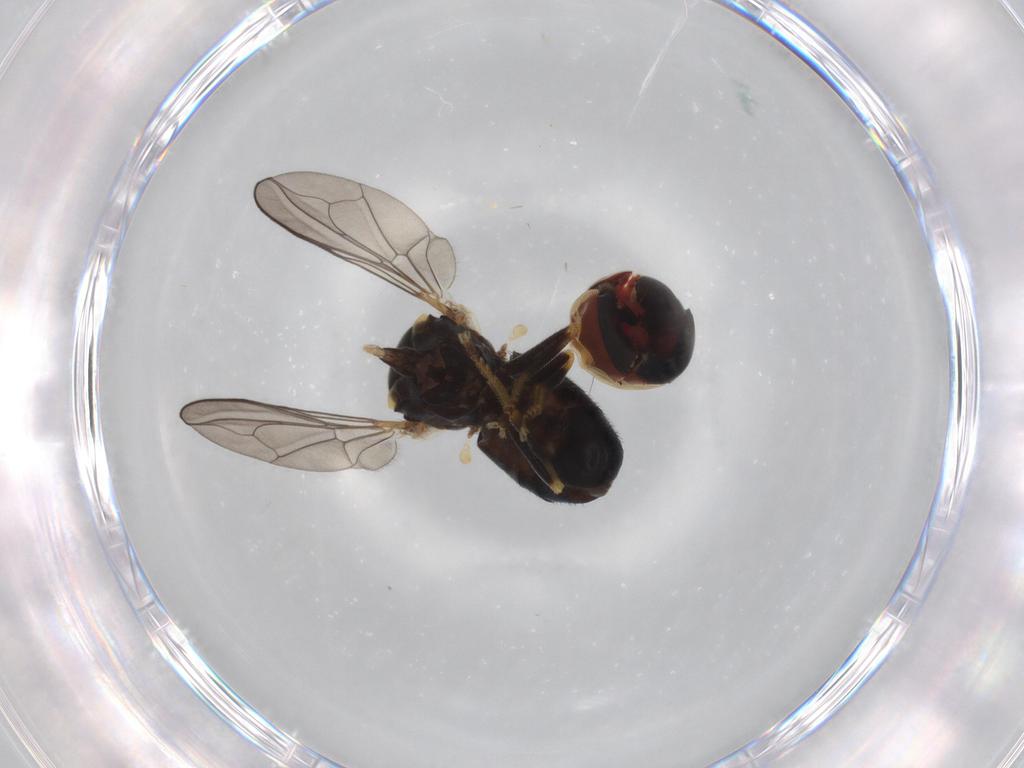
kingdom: Animalia
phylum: Arthropoda
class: Insecta
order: Diptera
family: Pipunculidae
